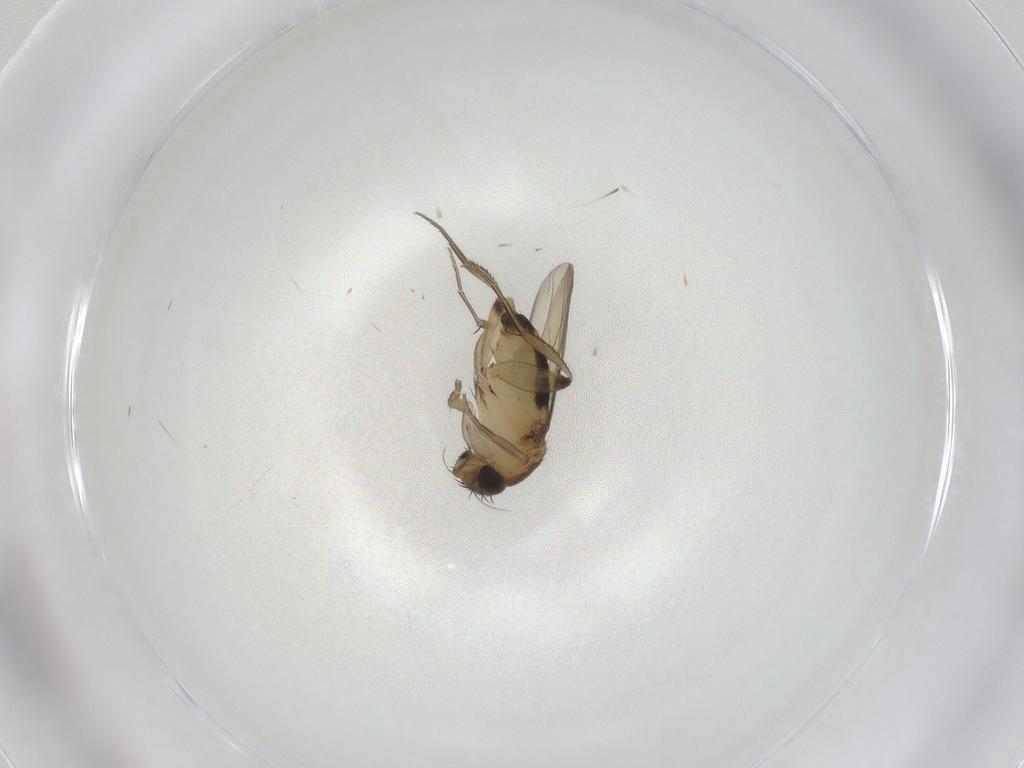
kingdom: Animalia
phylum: Arthropoda
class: Insecta
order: Diptera
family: Phoridae
